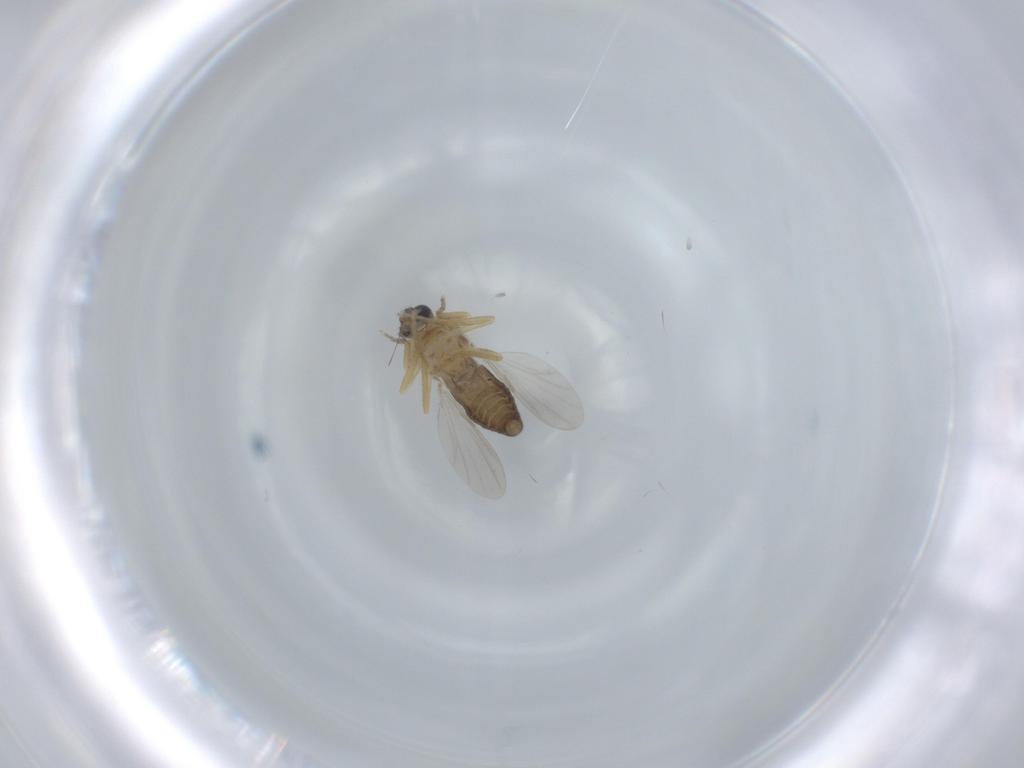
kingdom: Animalia
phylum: Arthropoda
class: Insecta
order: Diptera
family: Ceratopogonidae
